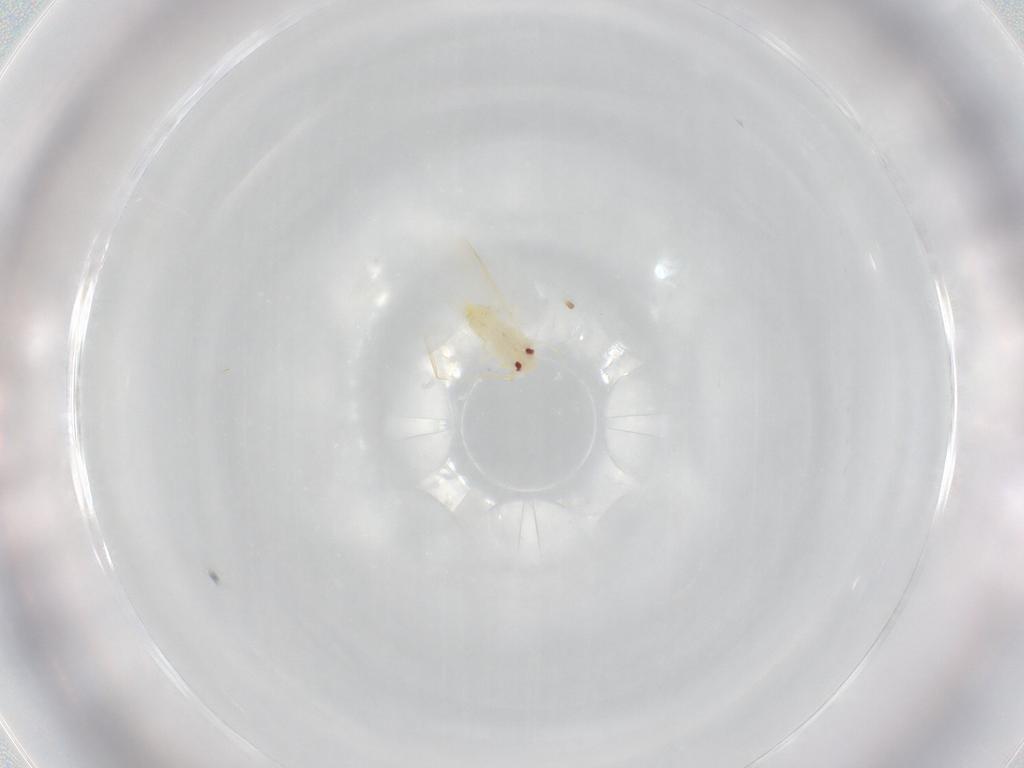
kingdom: Animalia
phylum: Arthropoda
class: Insecta
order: Hemiptera
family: Aleyrodidae
